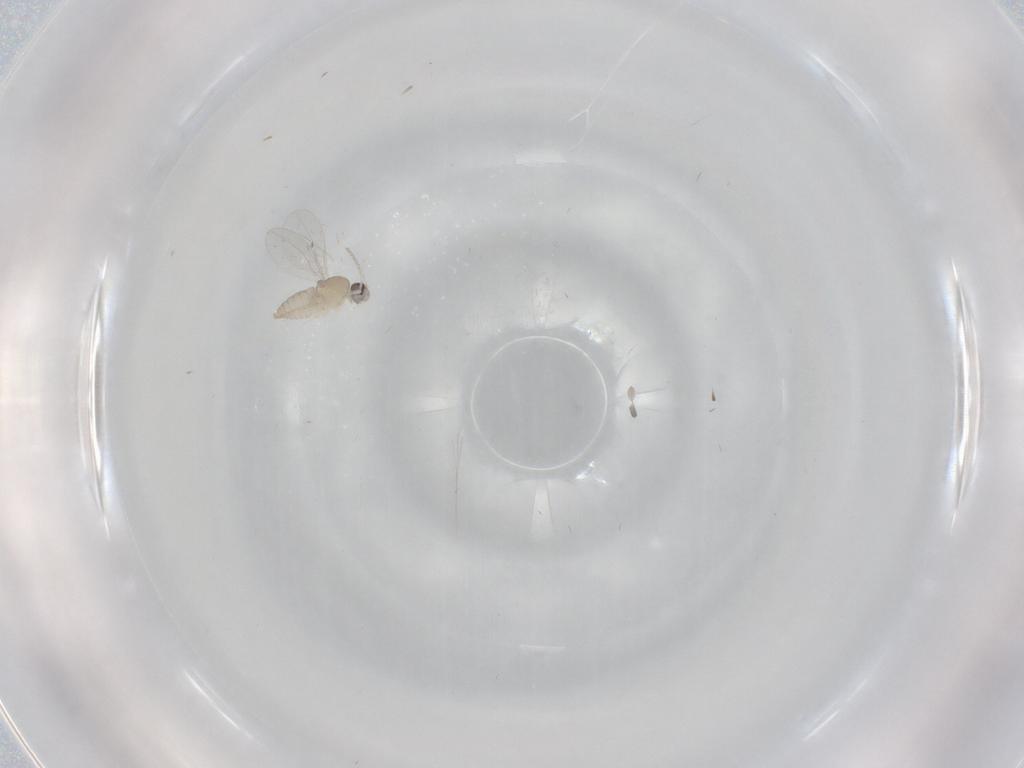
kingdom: Animalia
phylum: Arthropoda
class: Insecta
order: Diptera
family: Cecidomyiidae
